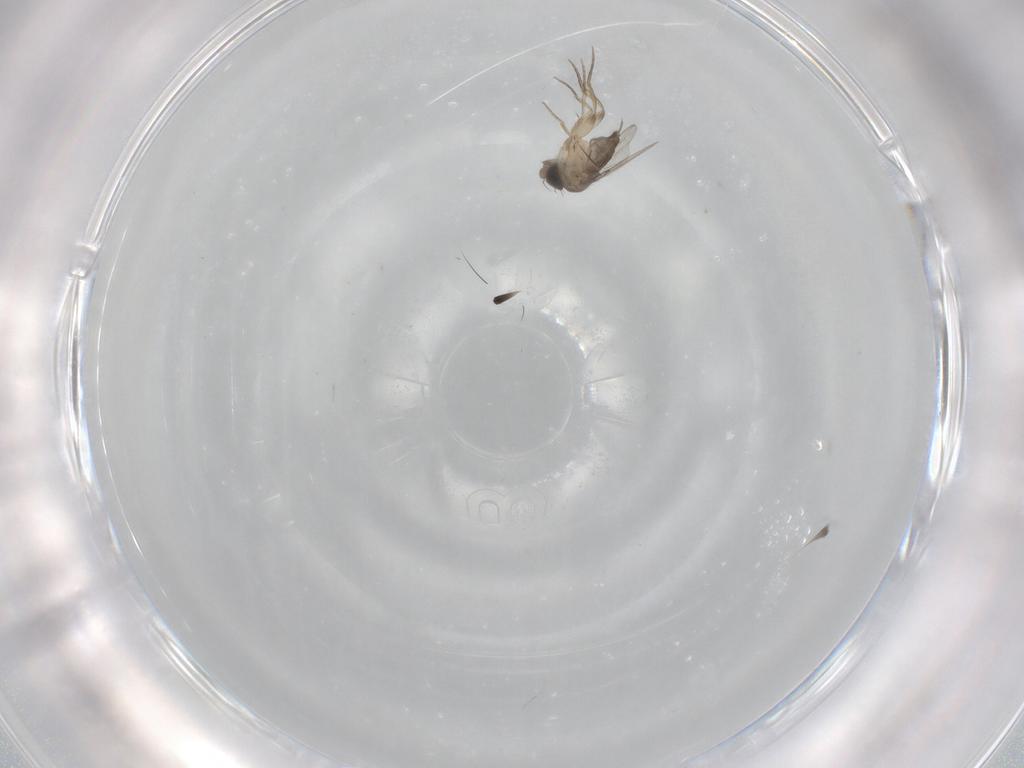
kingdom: Animalia
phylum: Arthropoda
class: Insecta
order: Diptera
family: Phoridae
